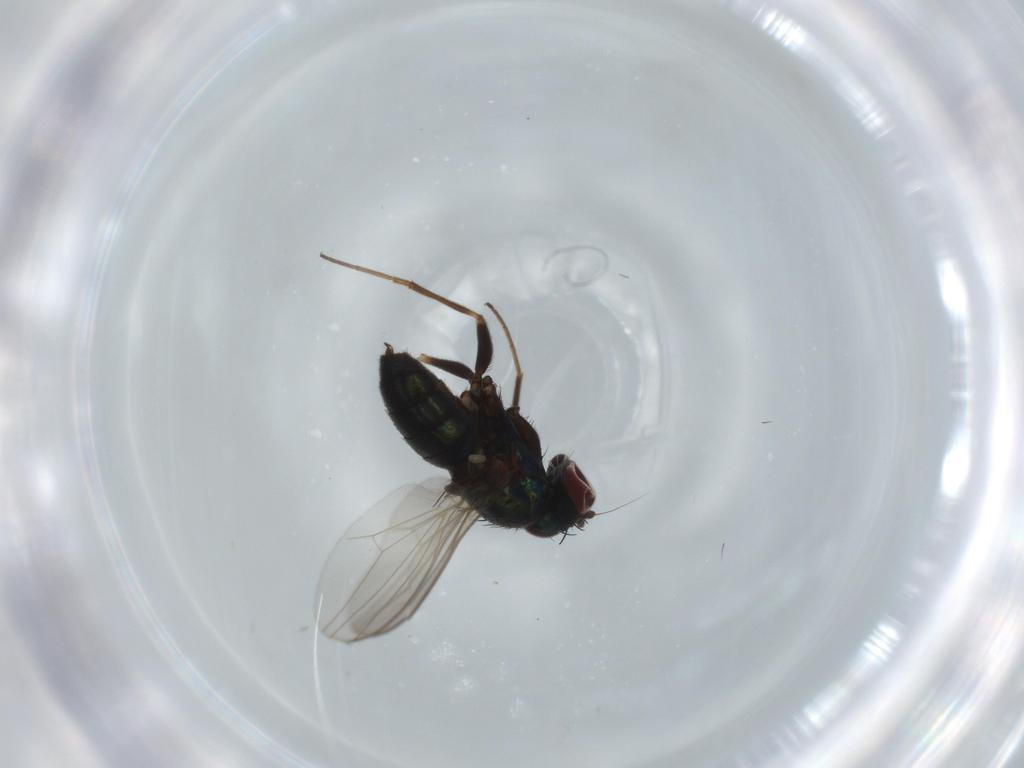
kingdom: Animalia
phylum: Arthropoda
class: Insecta
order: Diptera
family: Dolichopodidae
